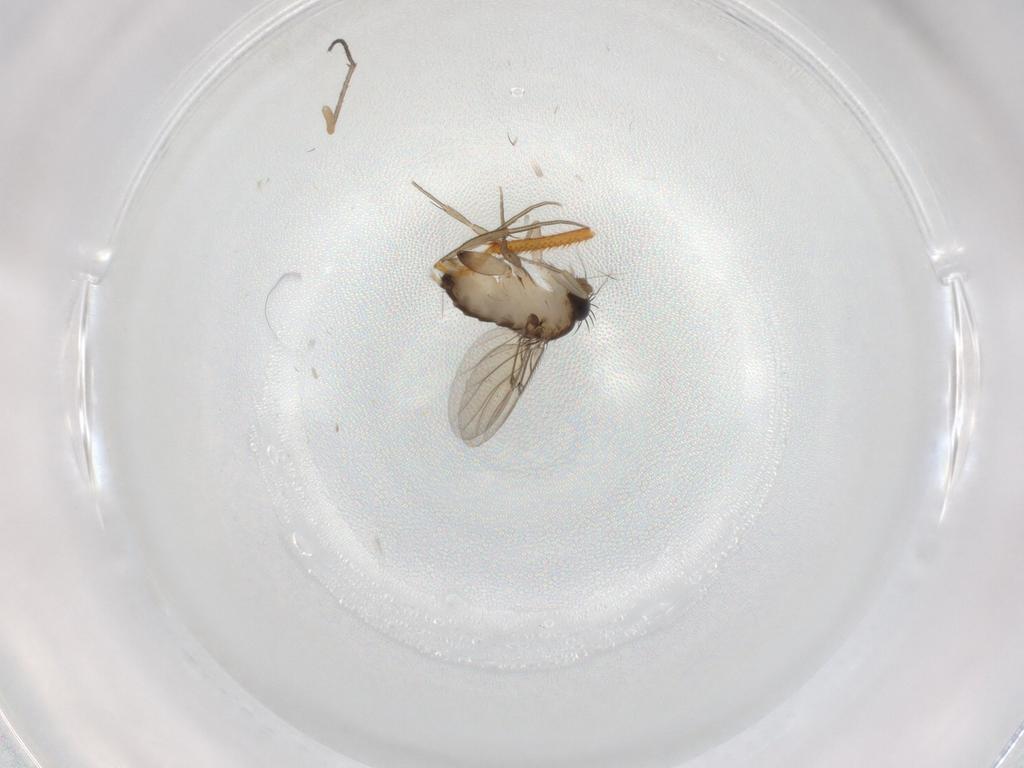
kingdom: Animalia
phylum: Arthropoda
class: Insecta
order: Diptera
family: Phoridae
